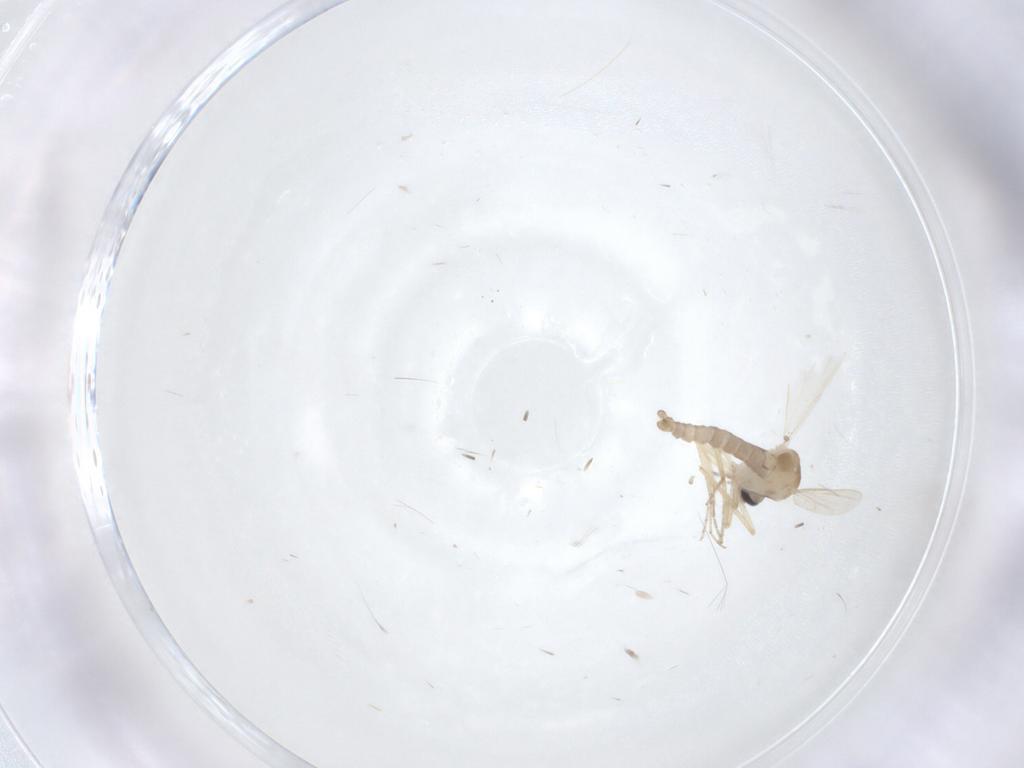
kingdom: Animalia
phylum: Arthropoda
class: Insecta
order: Diptera
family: Ceratopogonidae
